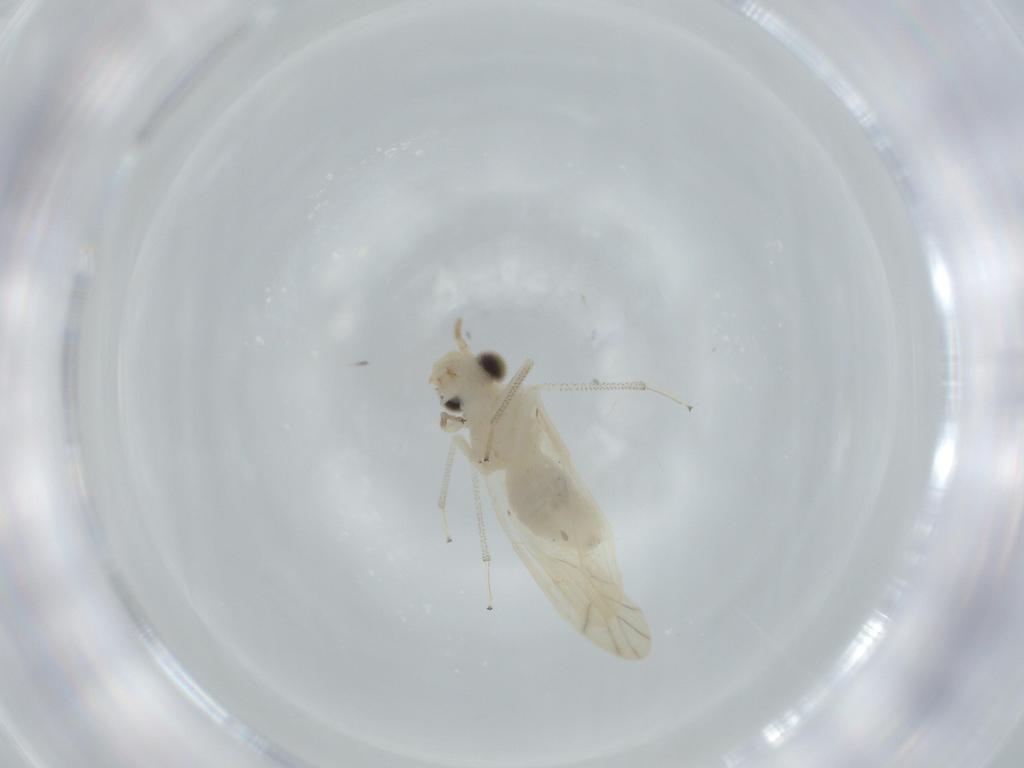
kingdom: Animalia
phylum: Arthropoda
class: Insecta
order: Psocodea
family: Caeciliusidae
